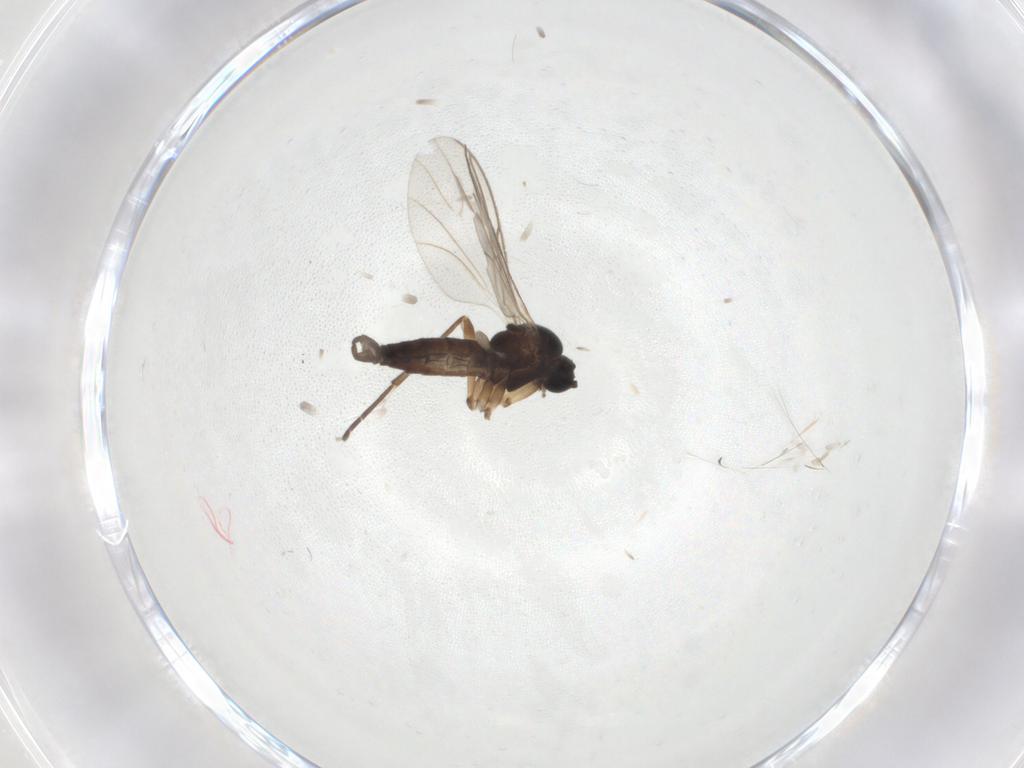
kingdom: Animalia
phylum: Arthropoda
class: Insecta
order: Diptera
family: Sciaridae
